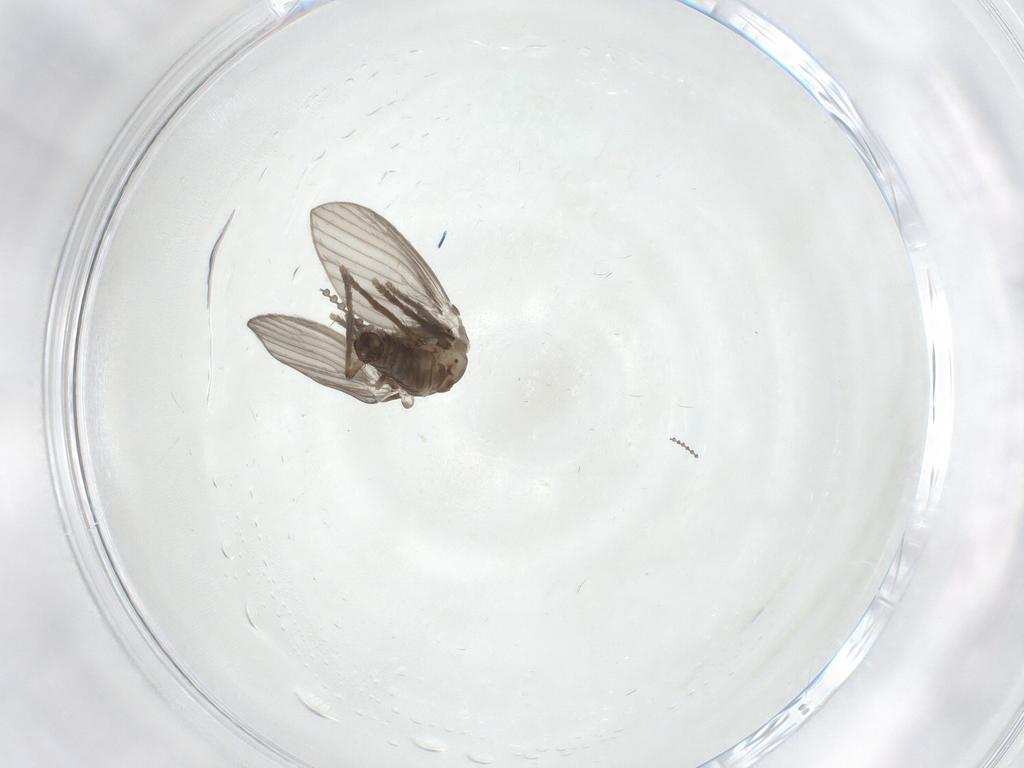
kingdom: Animalia
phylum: Arthropoda
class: Insecta
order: Diptera
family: Psychodidae
